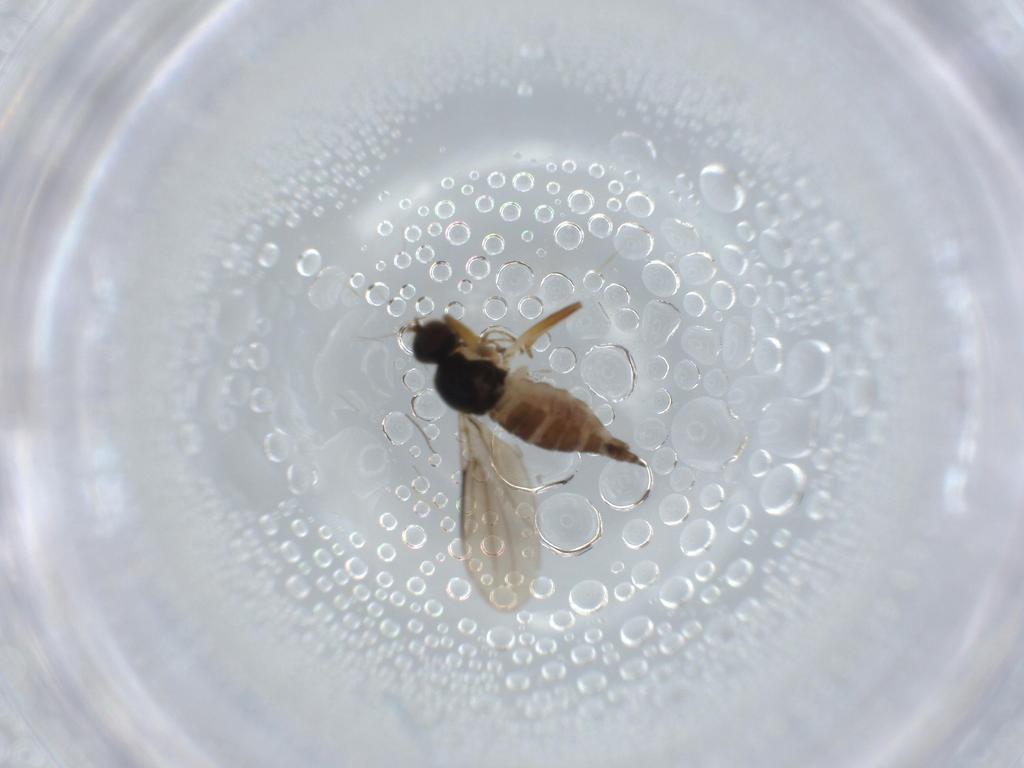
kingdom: Animalia
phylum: Arthropoda
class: Insecta
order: Diptera
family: Hybotidae
